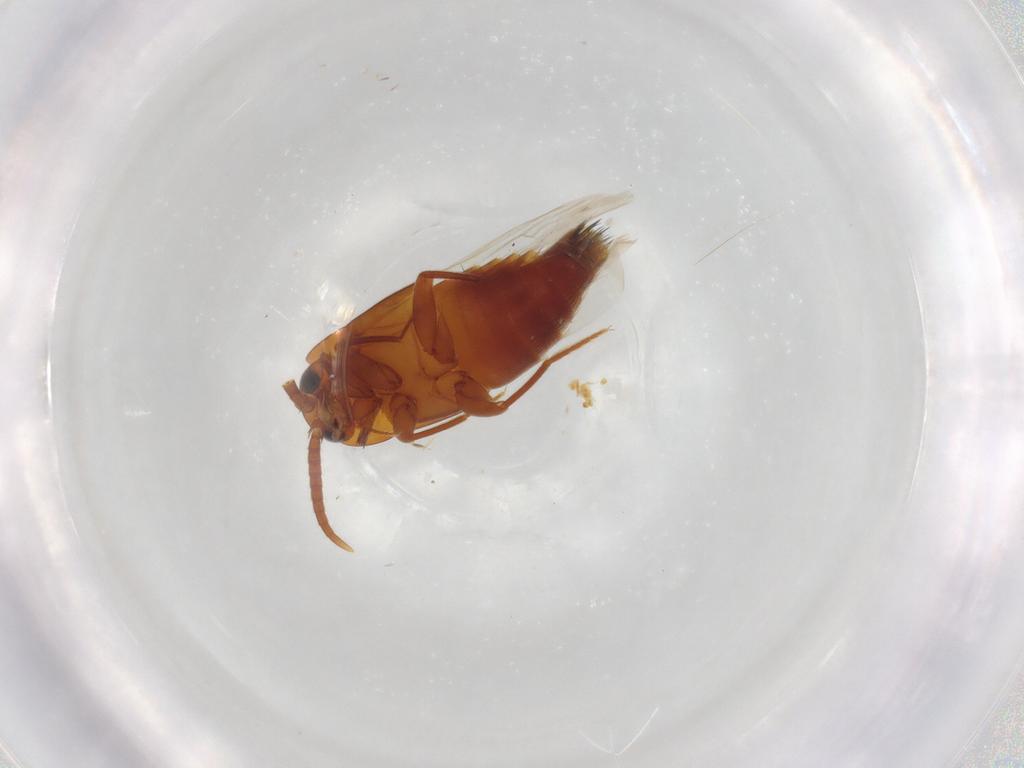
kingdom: Animalia
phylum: Arthropoda
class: Insecta
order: Coleoptera
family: Staphylinidae
